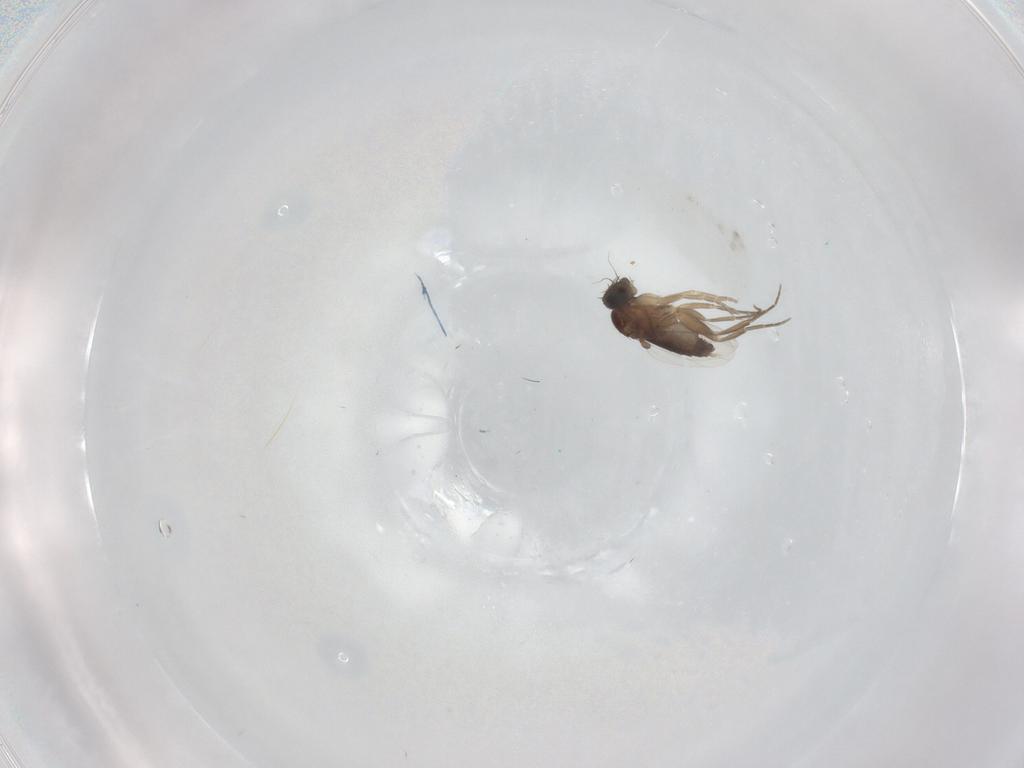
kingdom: Animalia
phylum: Arthropoda
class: Insecta
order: Diptera
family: Phoridae
